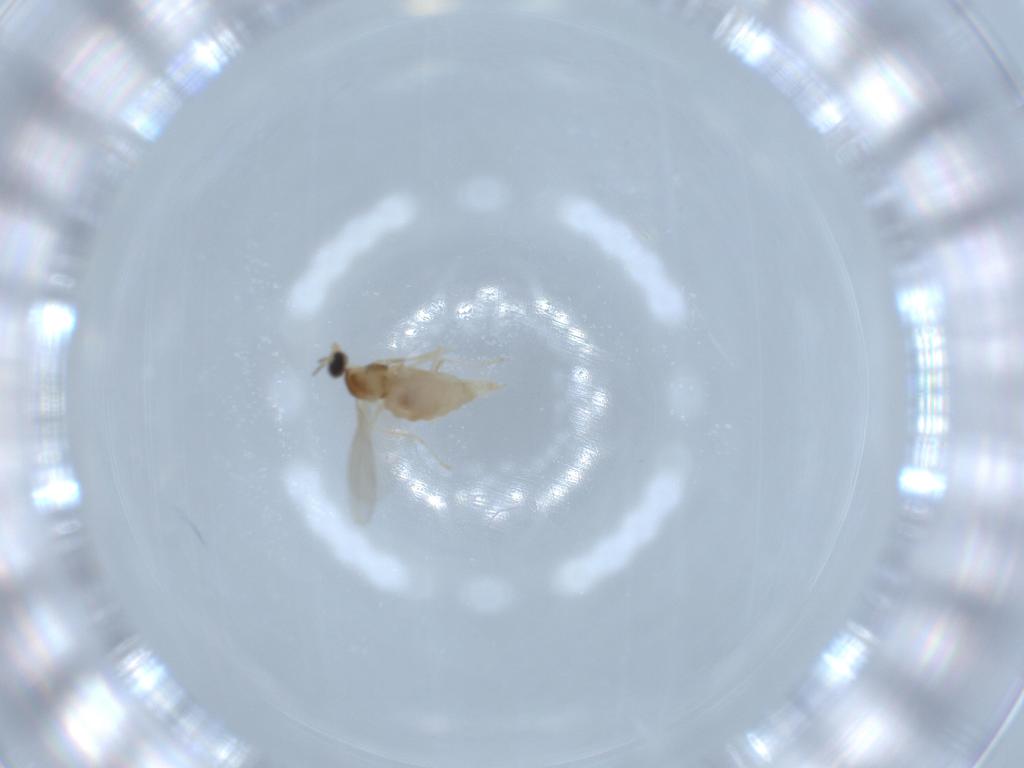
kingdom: Animalia
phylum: Arthropoda
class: Insecta
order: Diptera
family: Cecidomyiidae
